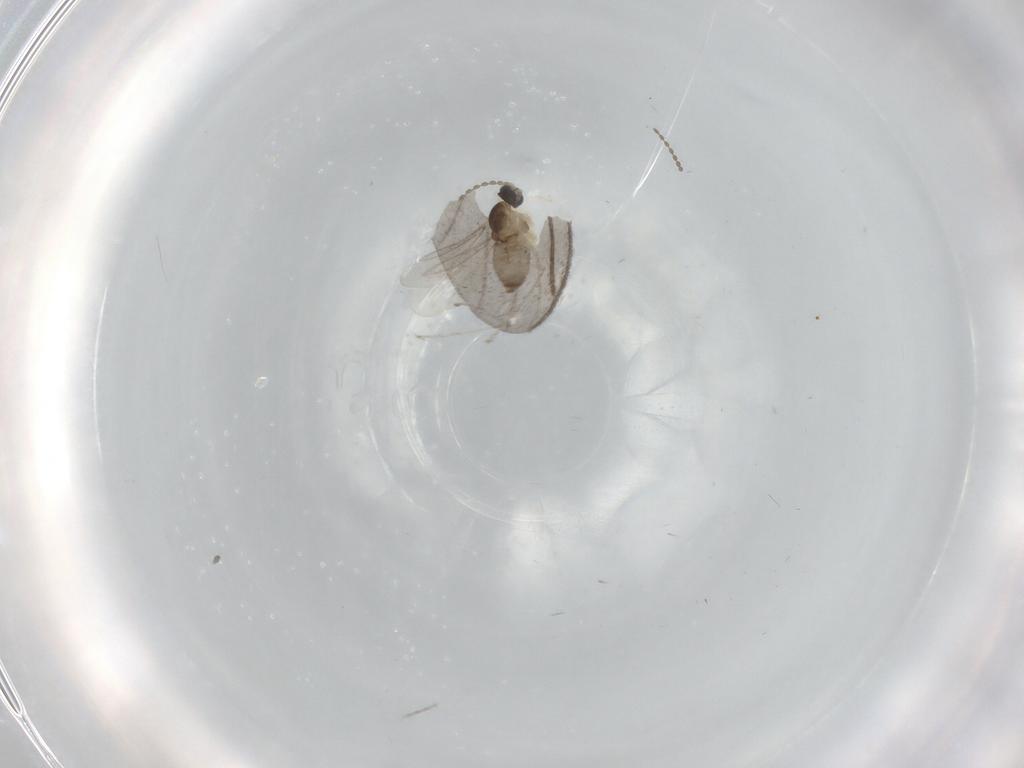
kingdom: Animalia
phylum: Arthropoda
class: Insecta
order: Diptera
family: Cecidomyiidae
